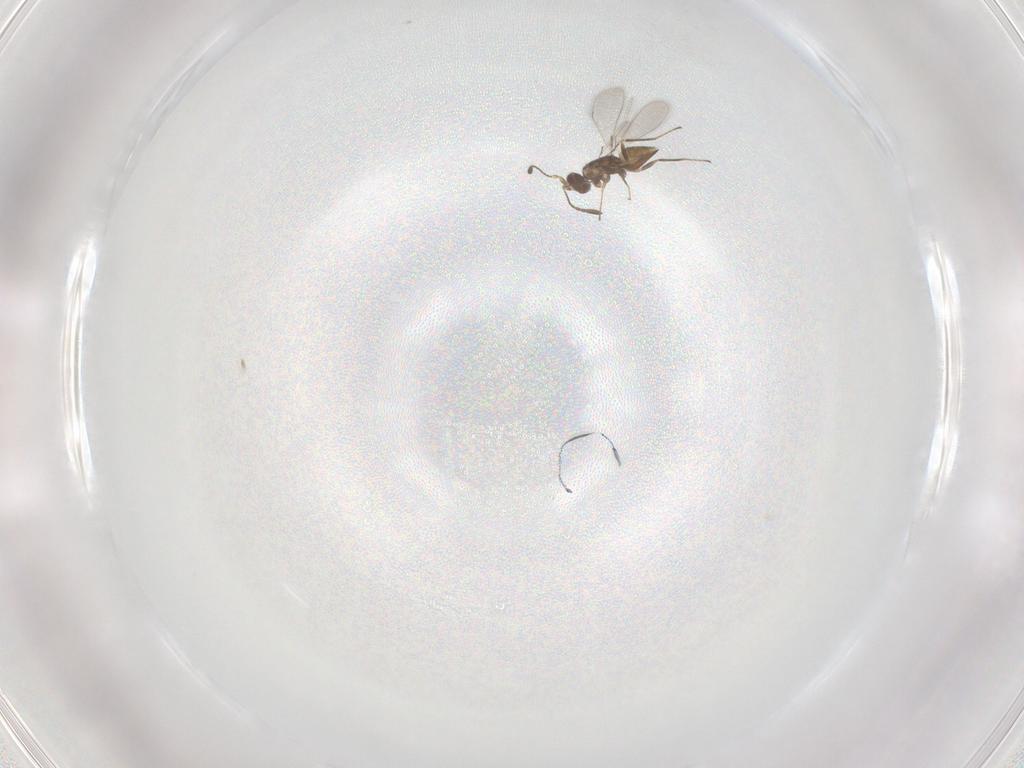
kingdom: Animalia
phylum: Arthropoda
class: Insecta
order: Hymenoptera
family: Mymaridae
